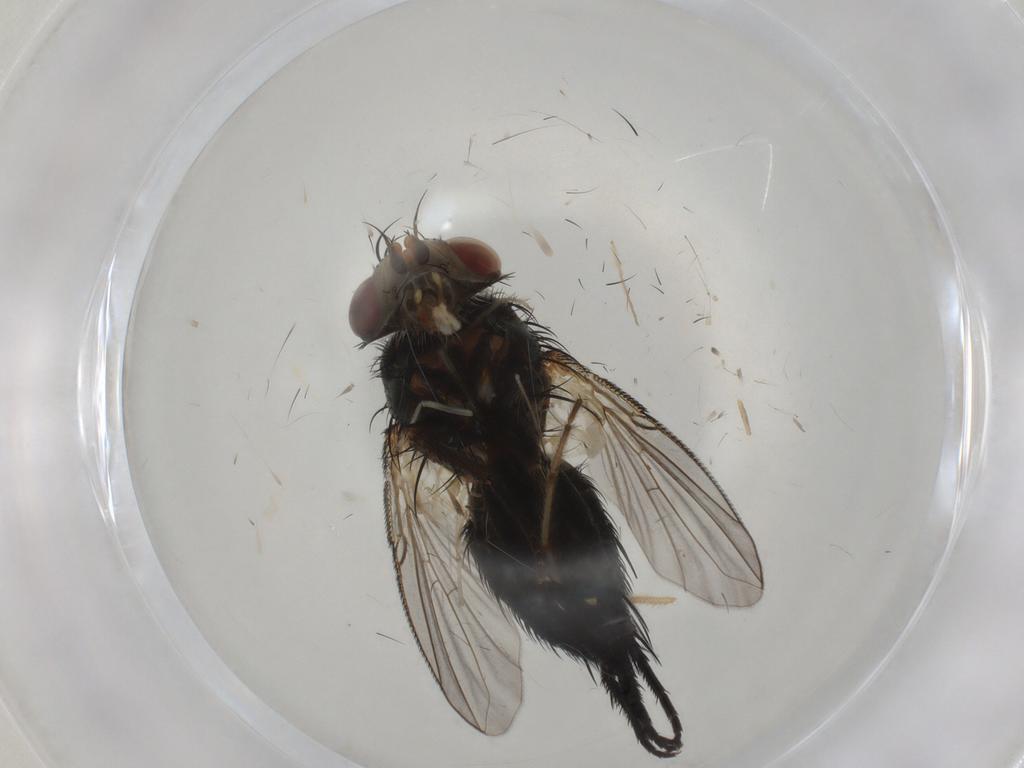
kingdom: Animalia
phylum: Arthropoda
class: Insecta
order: Diptera
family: Tachinidae
